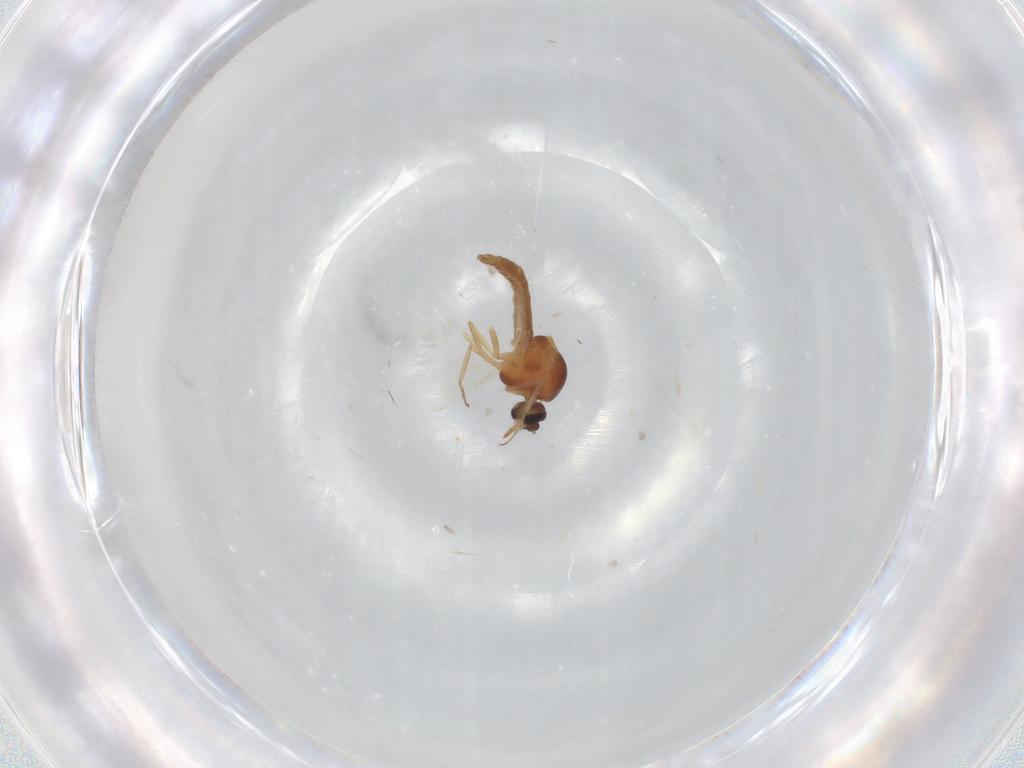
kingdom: Animalia
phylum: Arthropoda
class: Insecta
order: Diptera
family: Ceratopogonidae
